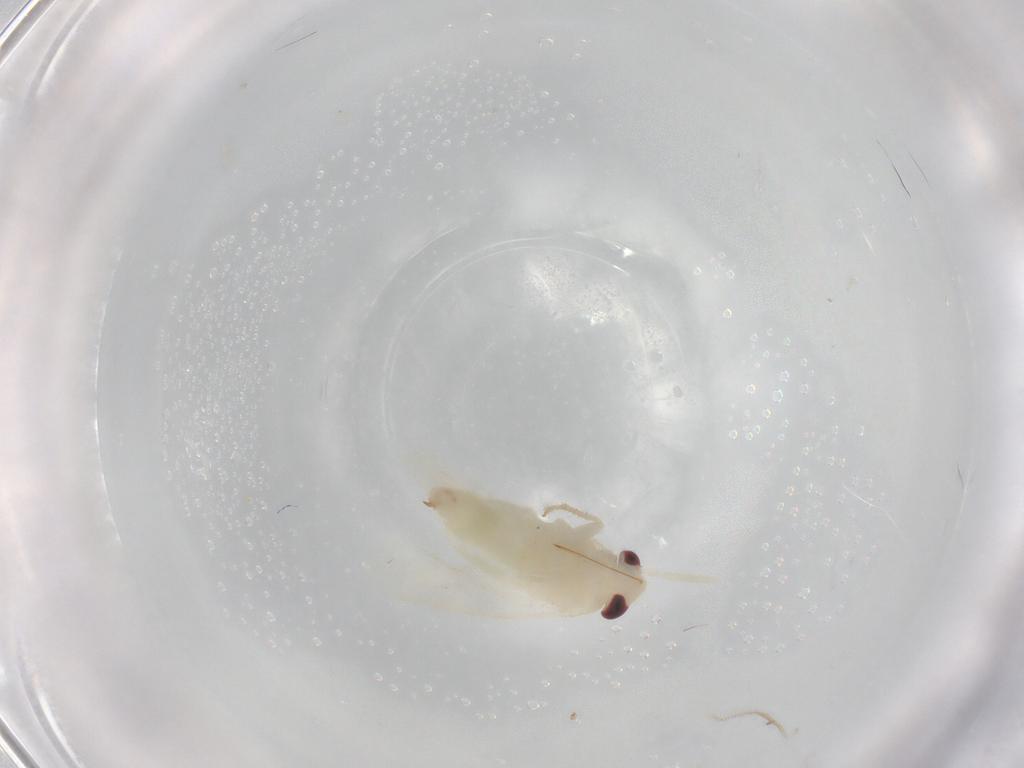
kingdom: Animalia
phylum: Arthropoda
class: Insecta
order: Hemiptera
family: Miridae
